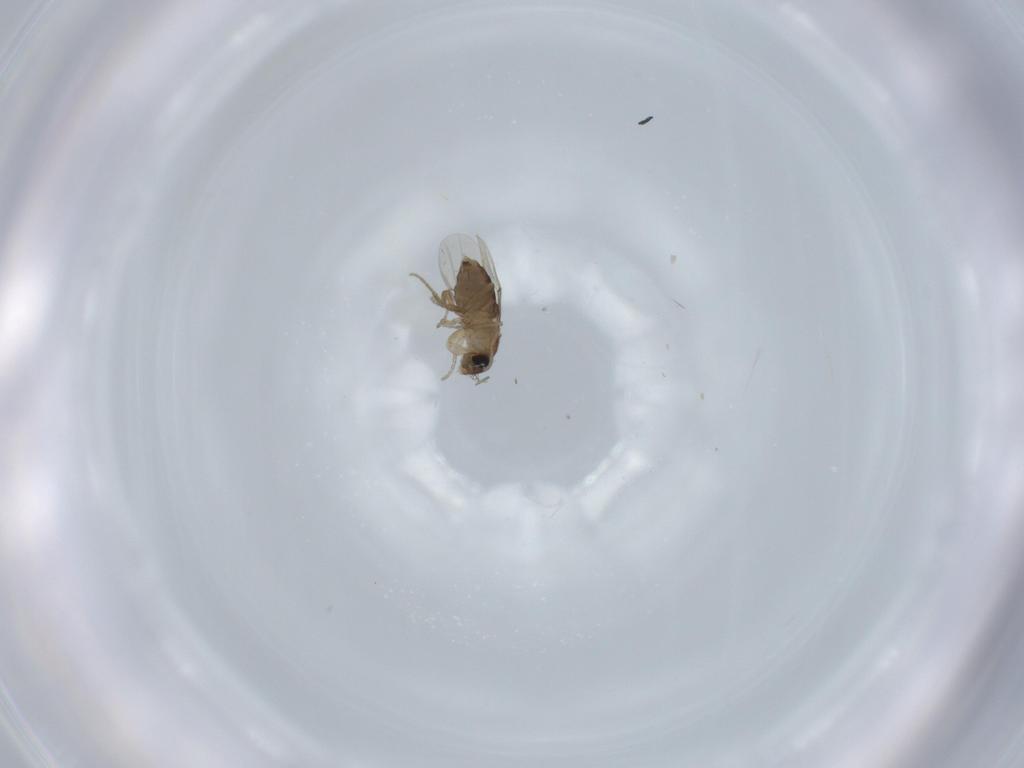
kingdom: Animalia
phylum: Arthropoda
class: Insecta
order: Diptera
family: Phoridae
